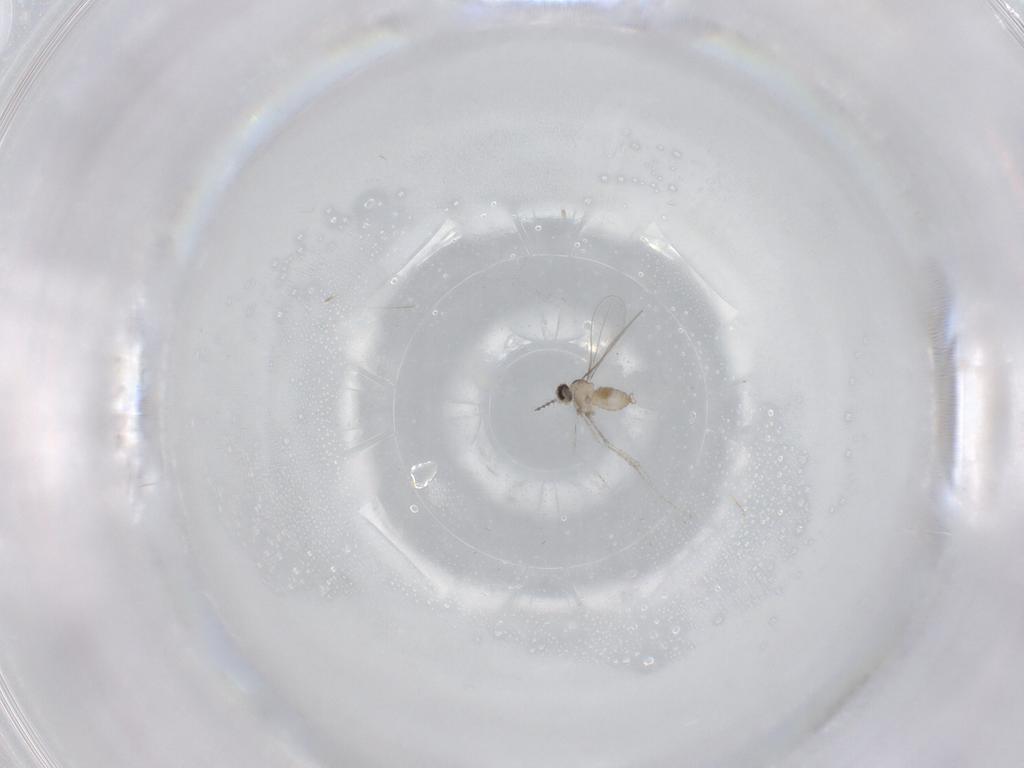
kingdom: Animalia
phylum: Arthropoda
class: Insecta
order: Diptera
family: Cecidomyiidae
